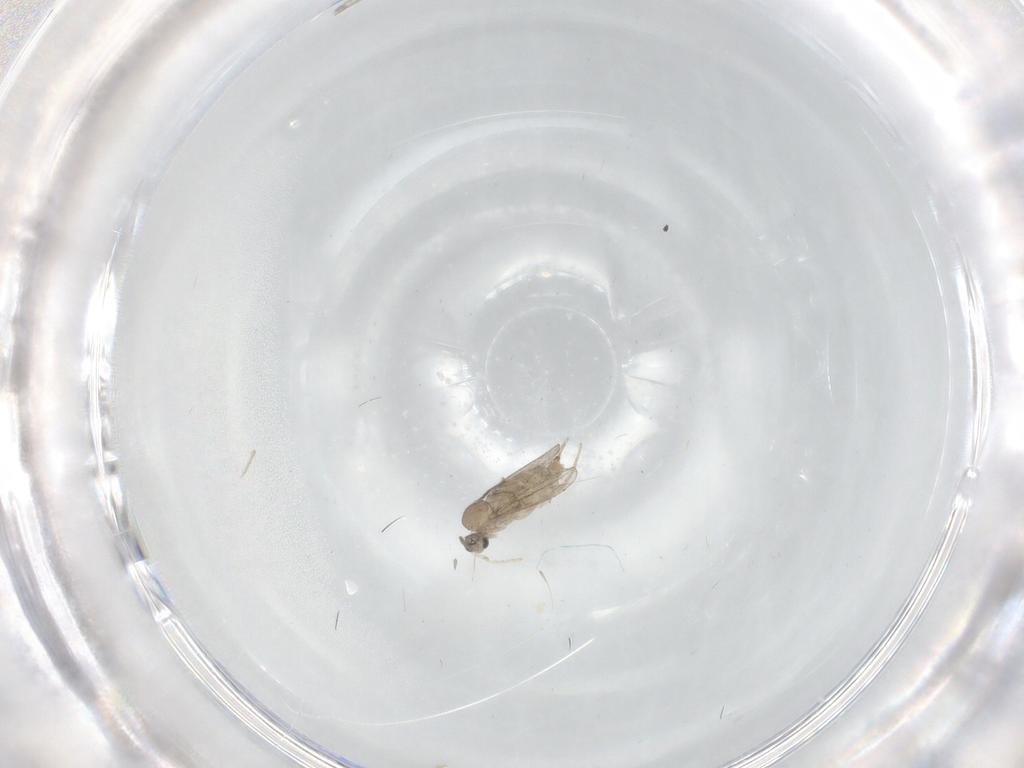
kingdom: Animalia
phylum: Arthropoda
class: Insecta
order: Diptera
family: Cecidomyiidae
